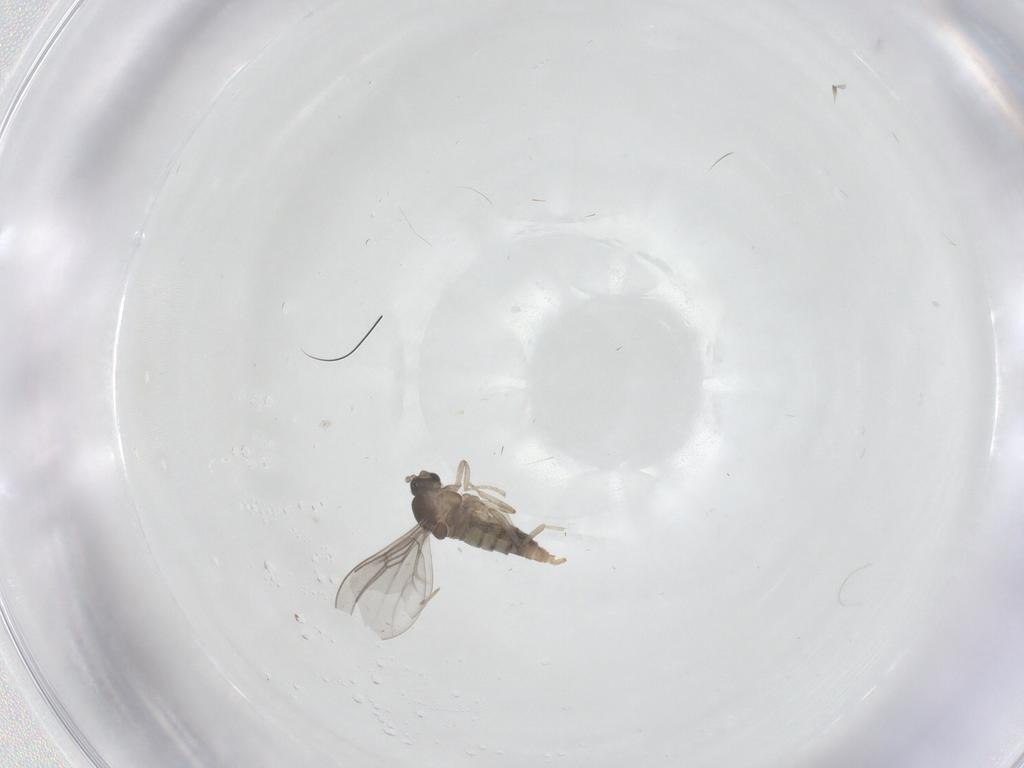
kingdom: Animalia
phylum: Arthropoda
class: Insecta
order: Diptera
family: Cecidomyiidae
